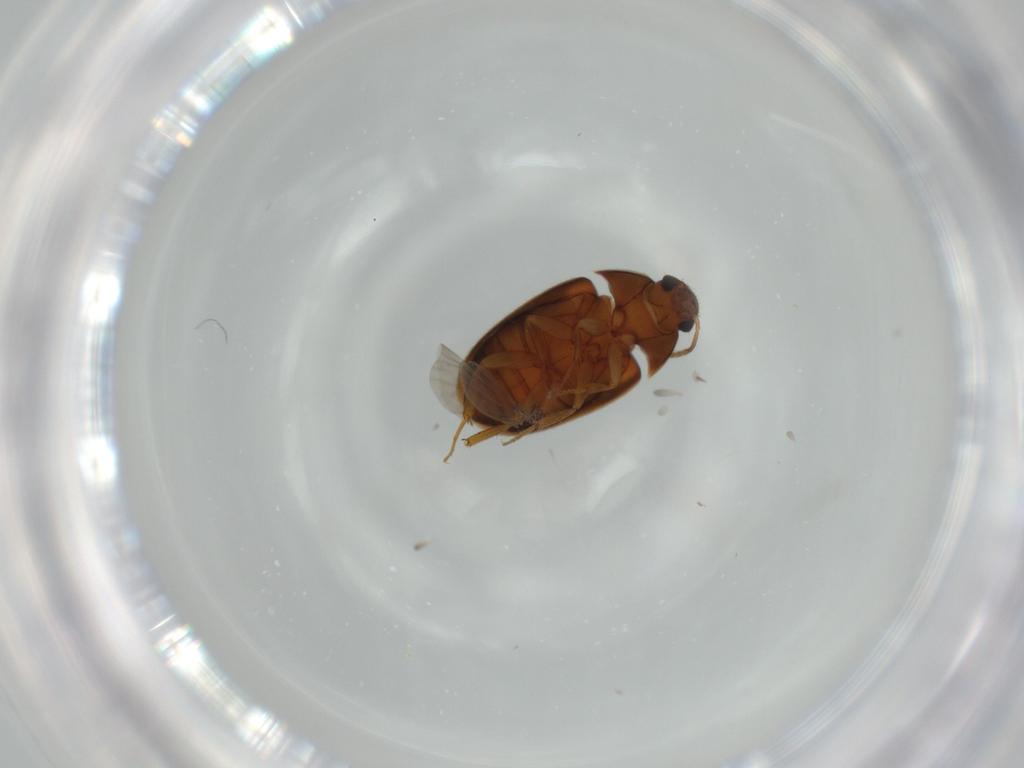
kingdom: Animalia
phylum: Arthropoda
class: Insecta
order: Coleoptera
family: Mycetophagidae
